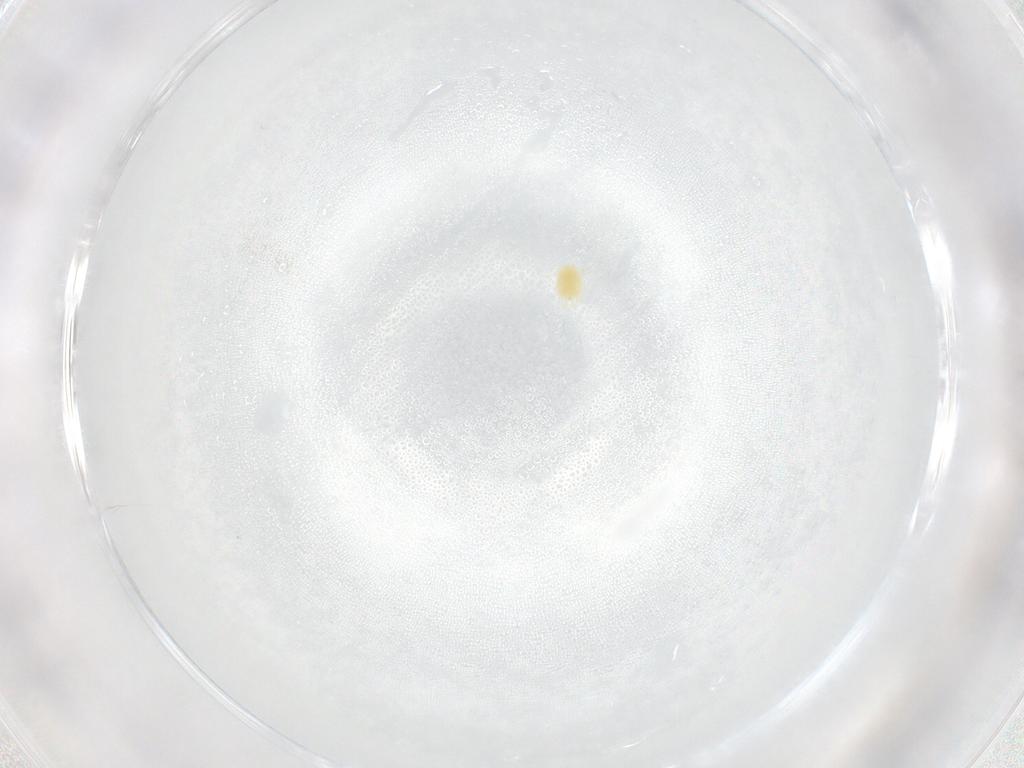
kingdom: Animalia
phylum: Arthropoda
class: Arachnida
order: Trombidiformes
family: Tetranychidae
